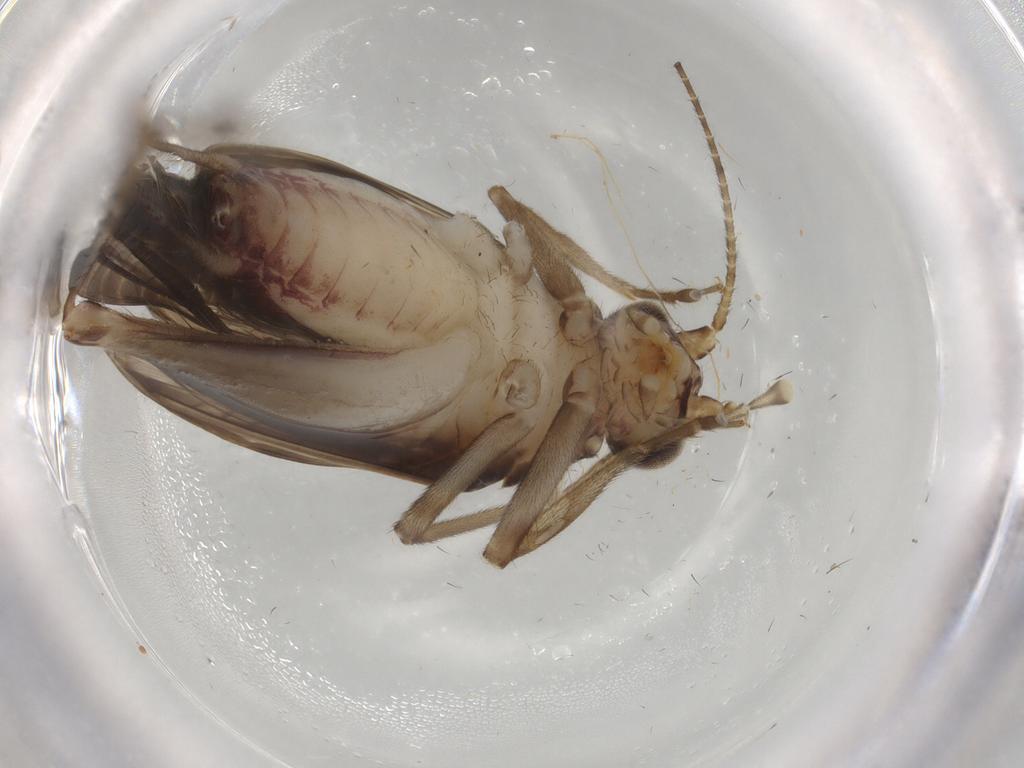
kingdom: Animalia
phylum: Arthropoda
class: Insecta
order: Orthoptera
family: Trigonidiidae
